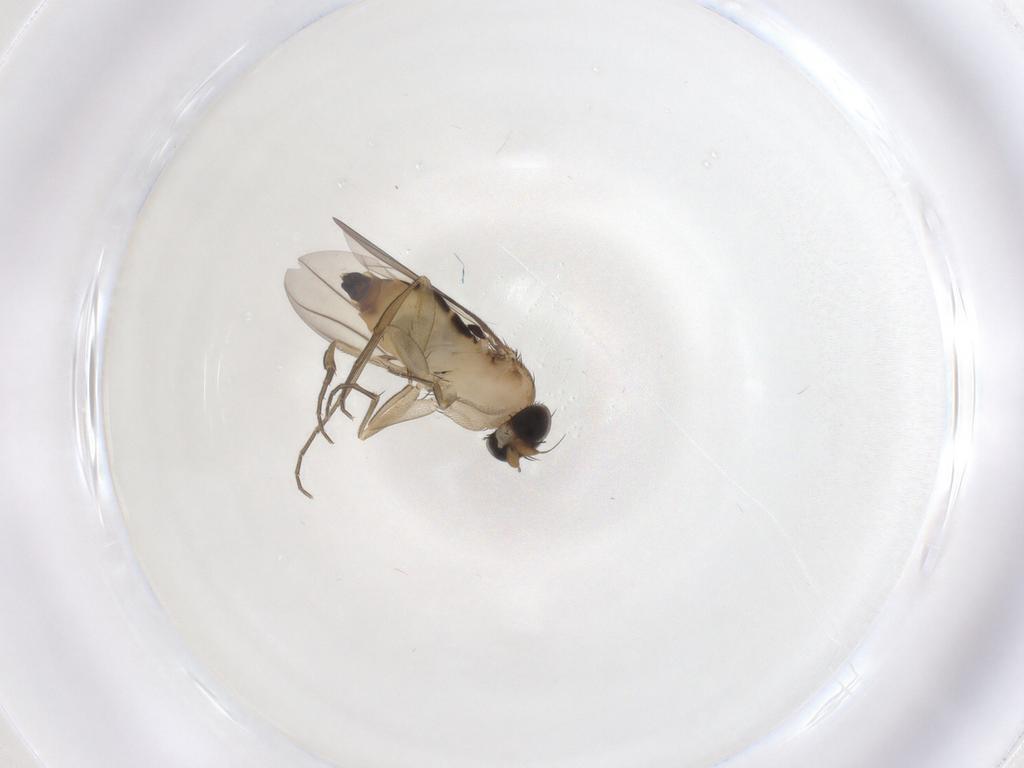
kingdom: Animalia
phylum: Arthropoda
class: Insecta
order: Diptera
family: Phoridae
